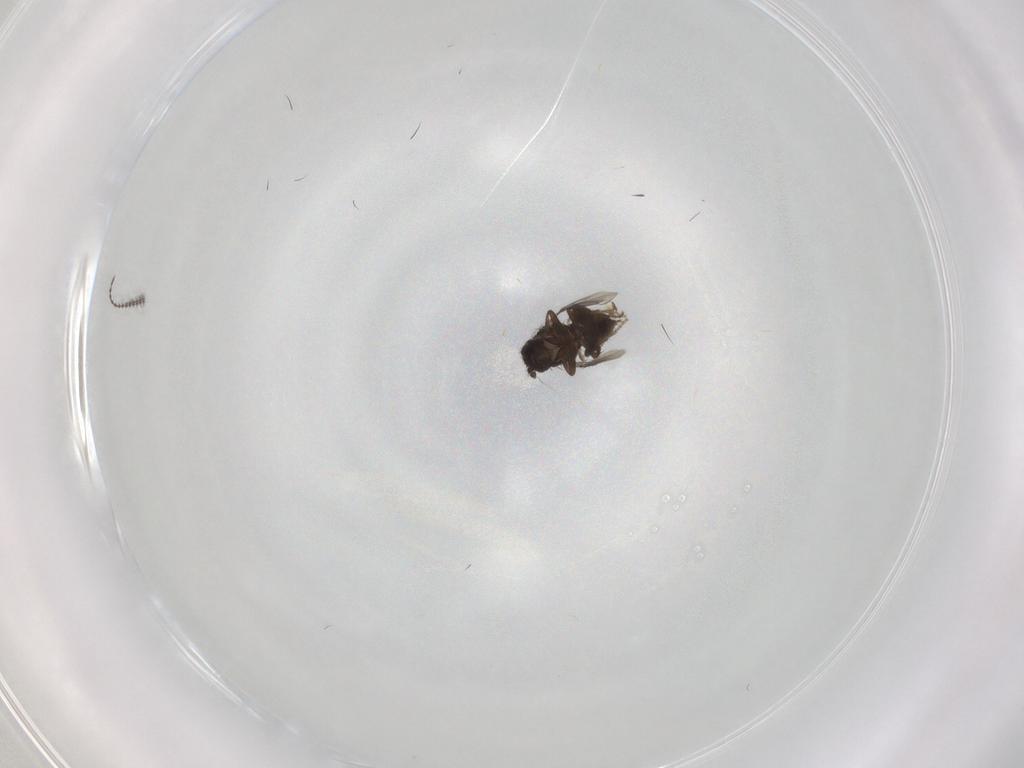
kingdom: Animalia
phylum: Arthropoda
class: Insecta
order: Diptera
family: Ceratopogonidae
